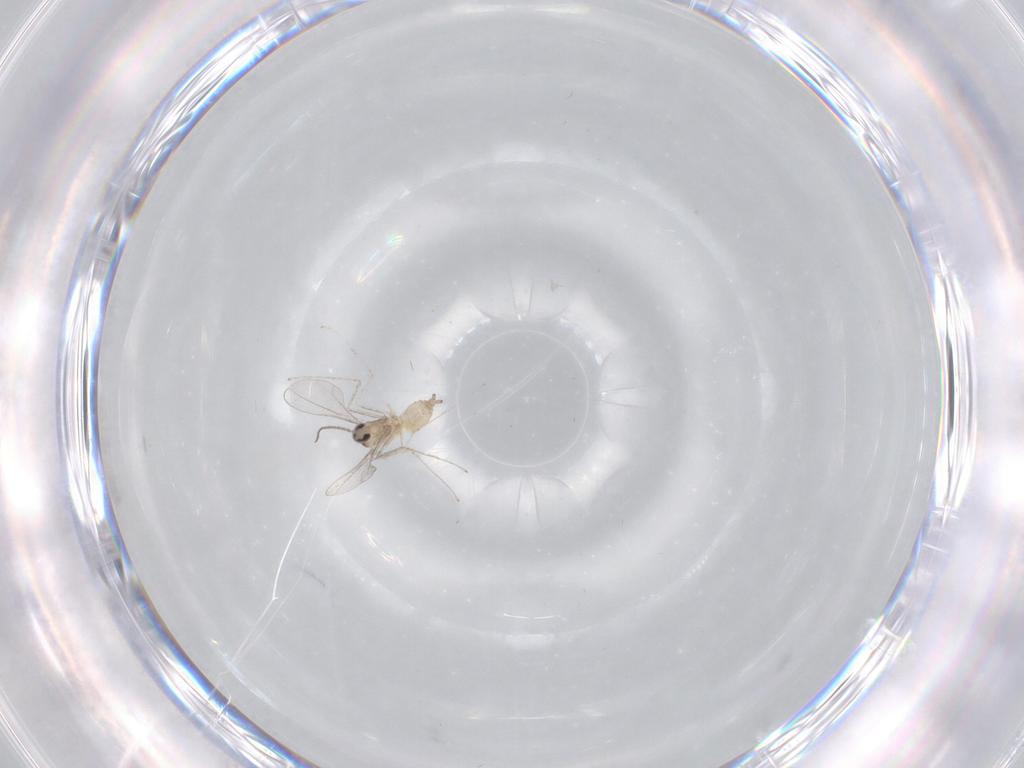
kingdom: Animalia
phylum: Arthropoda
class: Insecta
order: Diptera
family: Cecidomyiidae
